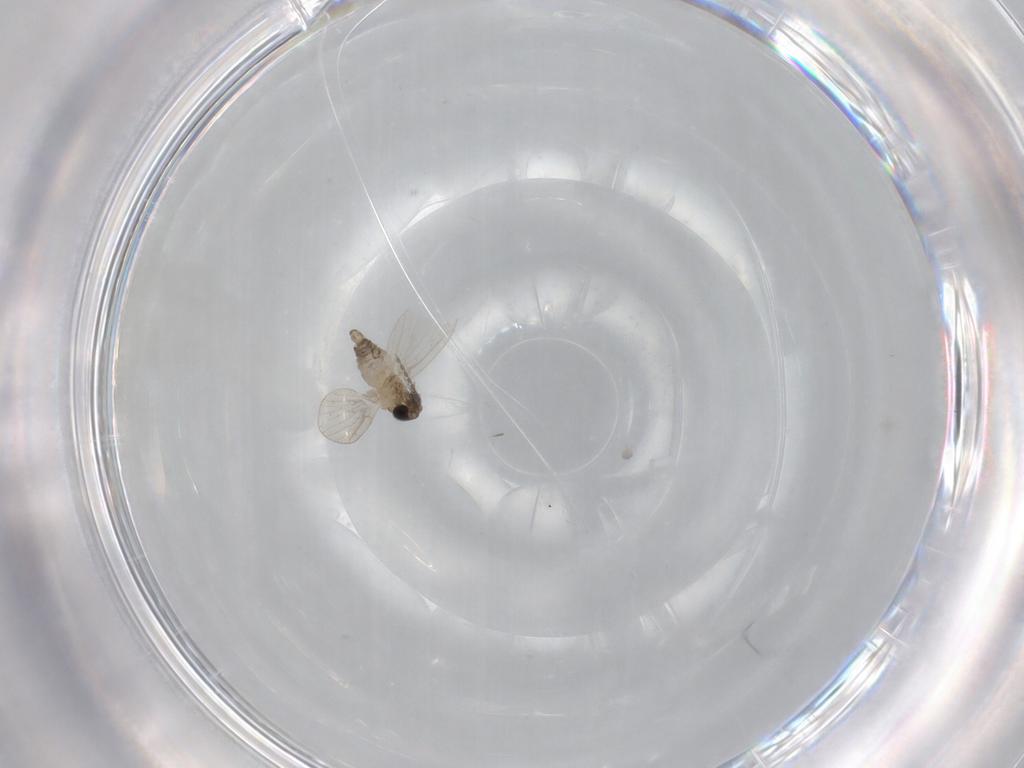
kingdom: Animalia
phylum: Arthropoda
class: Insecta
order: Diptera
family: Psychodidae
